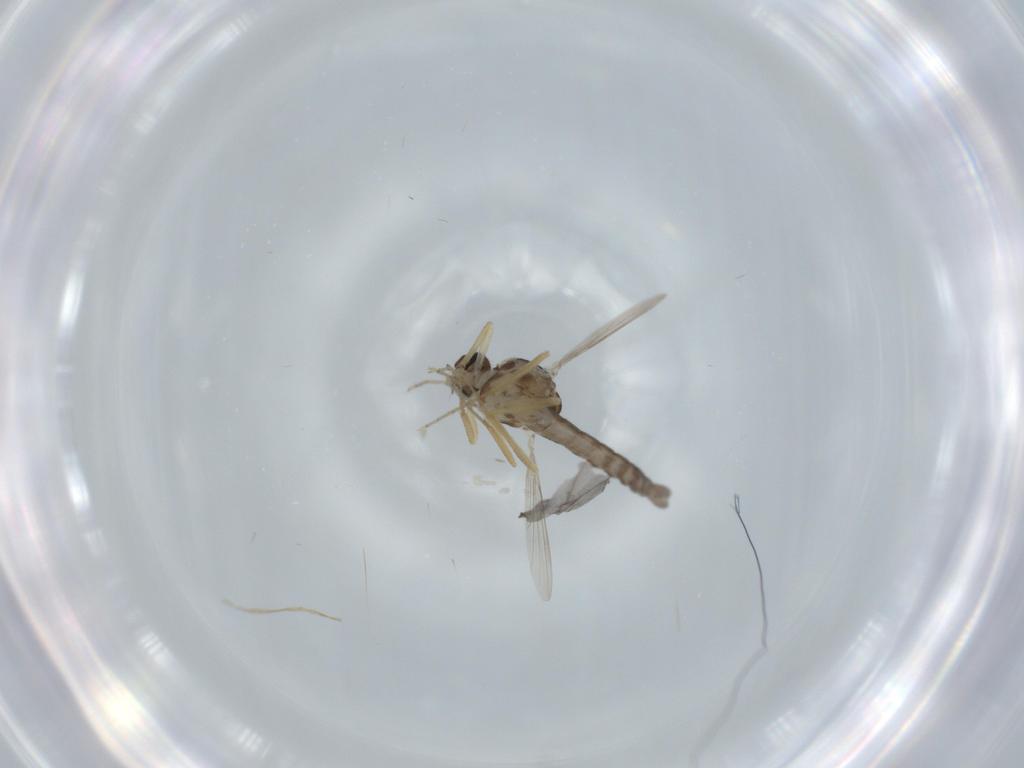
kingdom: Animalia
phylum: Arthropoda
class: Insecta
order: Diptera
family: Ceratopogonidae
